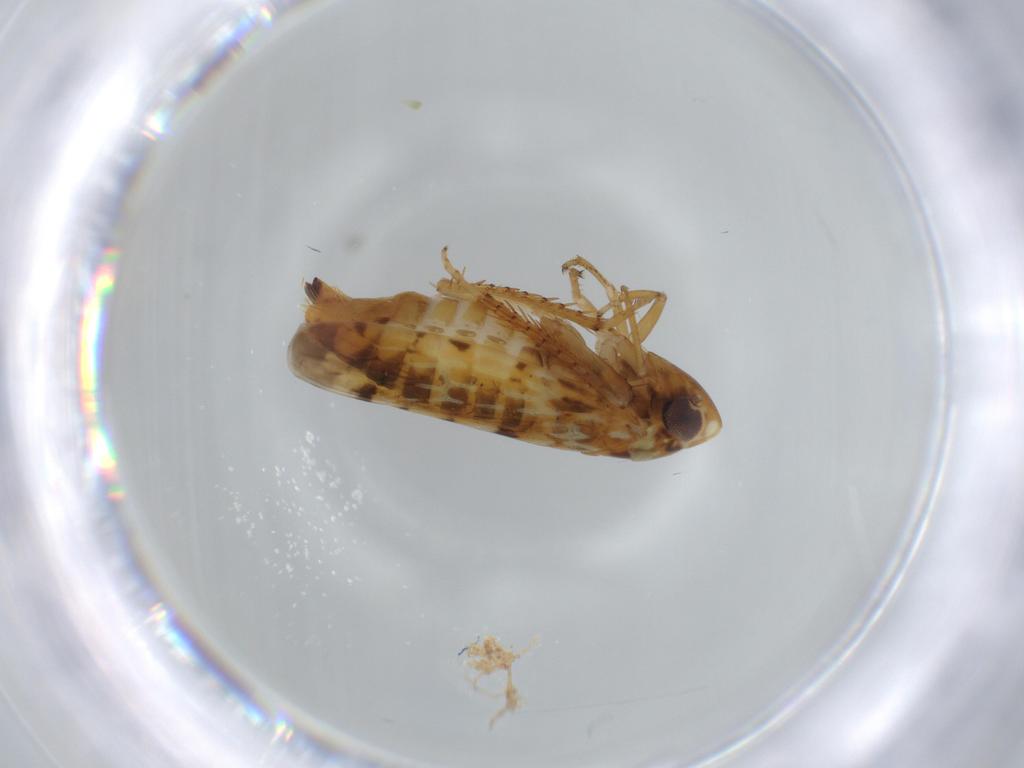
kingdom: Animalia
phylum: Arthropoda
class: Insecta
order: Hemiptera
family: Cicadellidae
